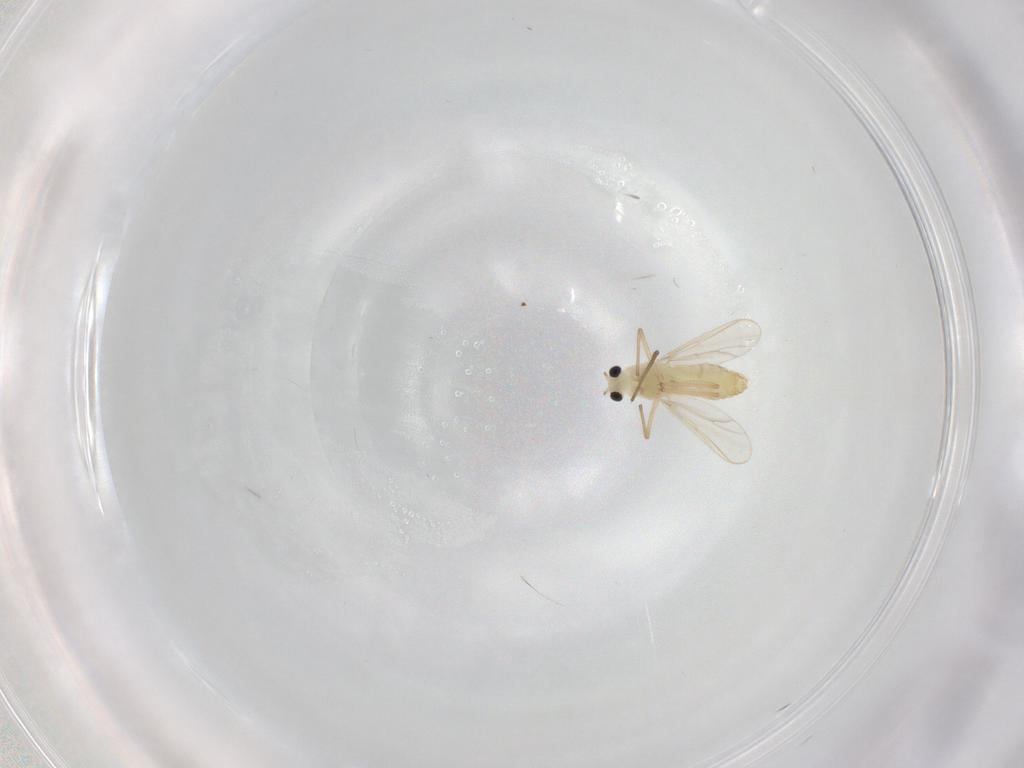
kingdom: Animalia
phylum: Arthropoda
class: Insecta
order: Diptera
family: Chironomidae
